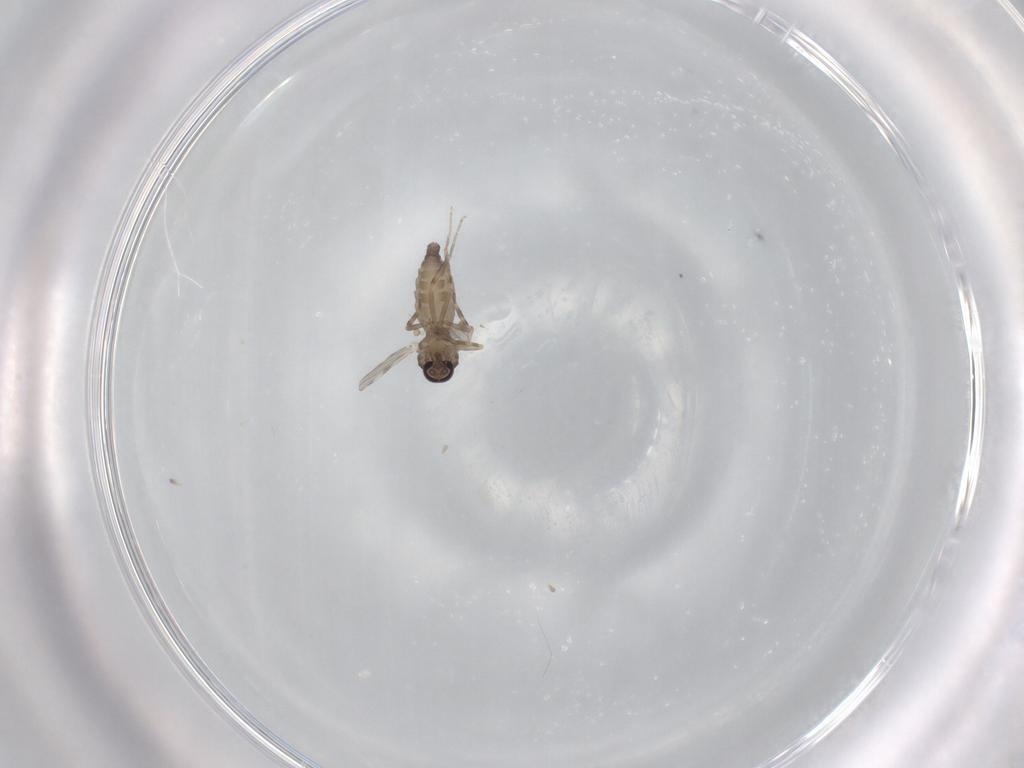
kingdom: Animalia
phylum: Arthropoda
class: Insecta
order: Diptera
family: Ceratopogonidae
